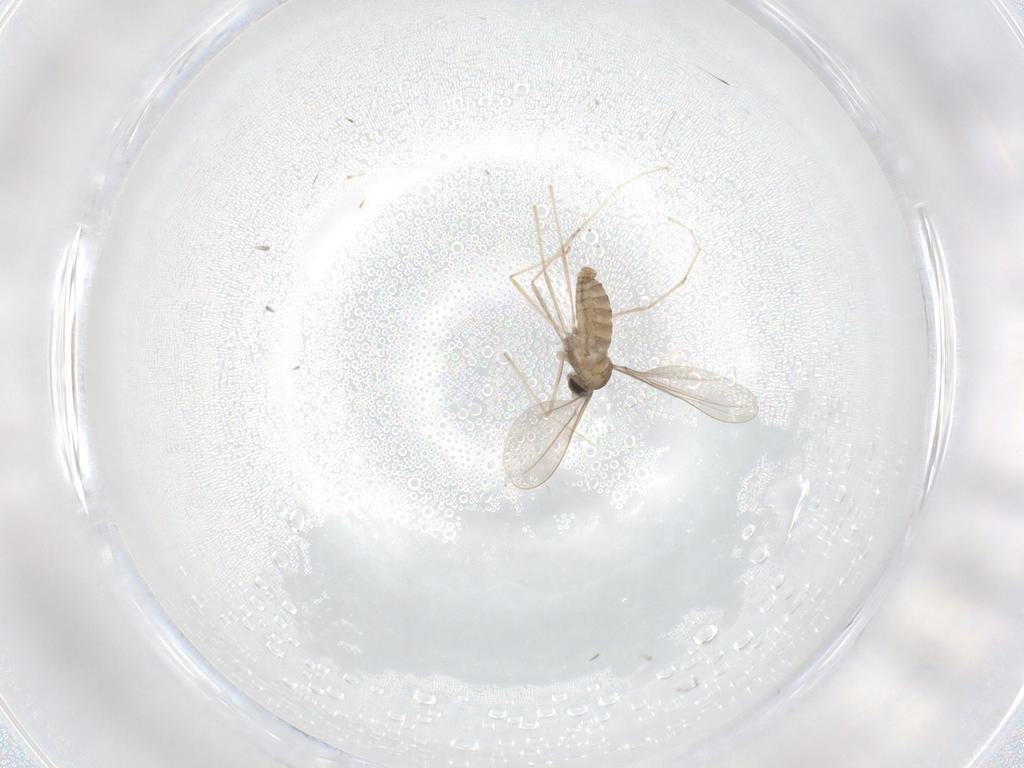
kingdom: Animalia
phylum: Arthropoda
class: Insecta
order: Diptera
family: Cecidomyiidae
